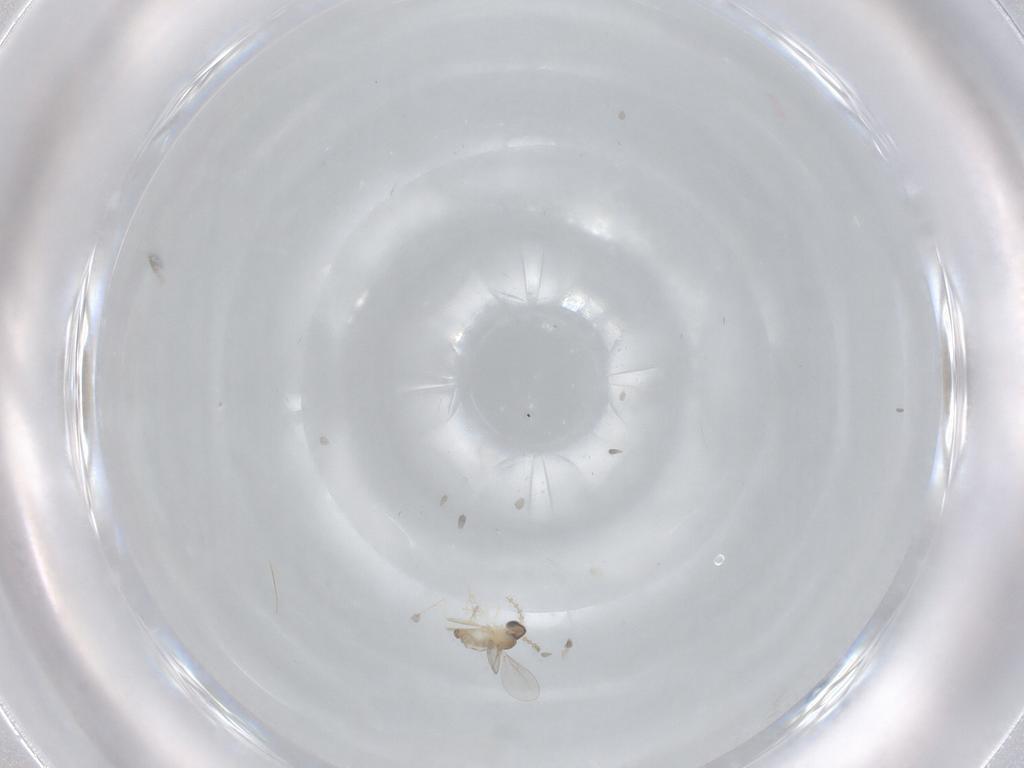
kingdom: Animalia
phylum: Arthropoda
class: Insecta
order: Diptera
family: Cecidomyiidae
